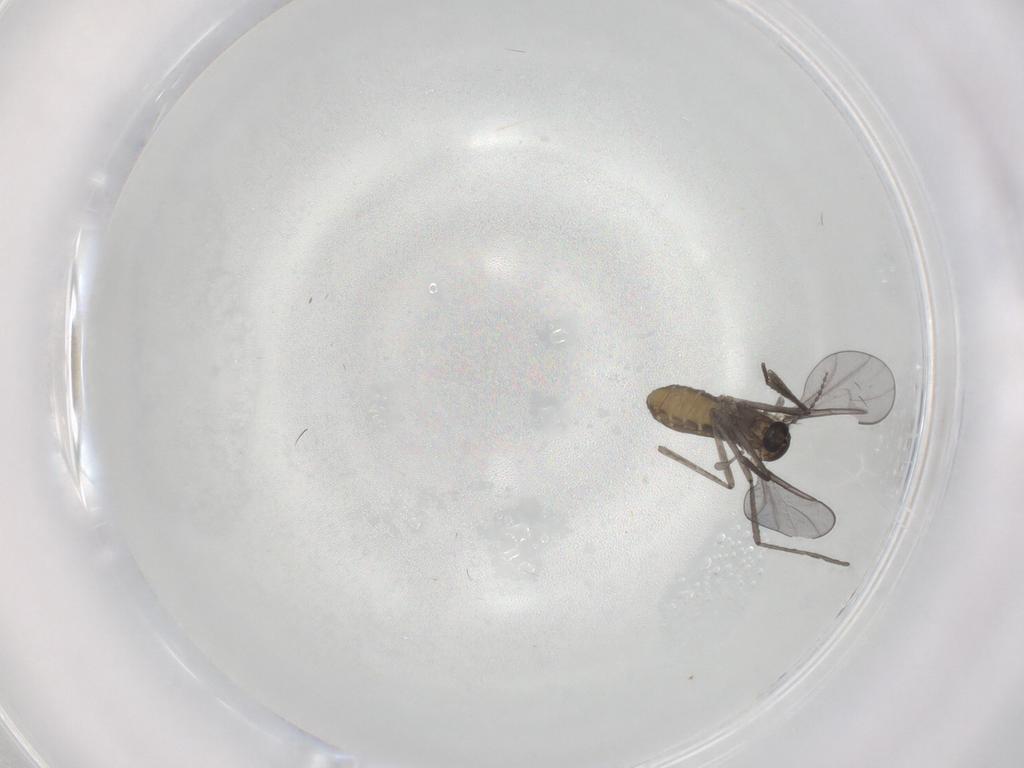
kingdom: Animalia
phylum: Arthropoda
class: Insecta
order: Diptera
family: Cecidomyiidae
